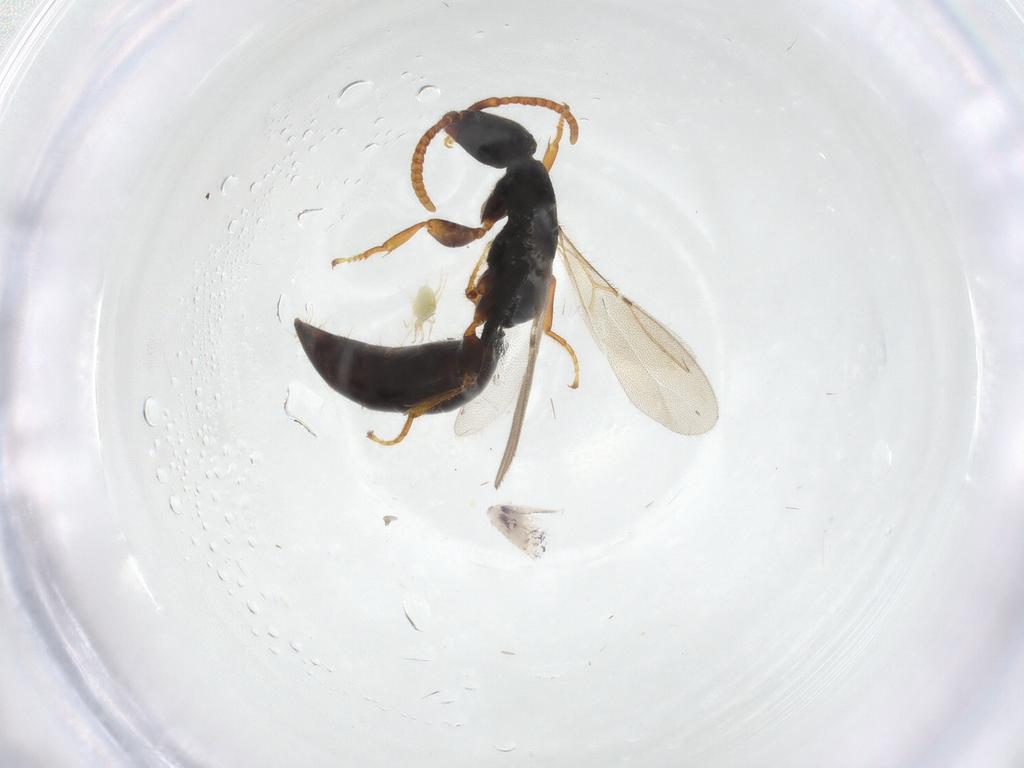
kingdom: Animalia
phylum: Arthropoda
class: Insecta
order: Hymenoptera
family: Bethylidae
